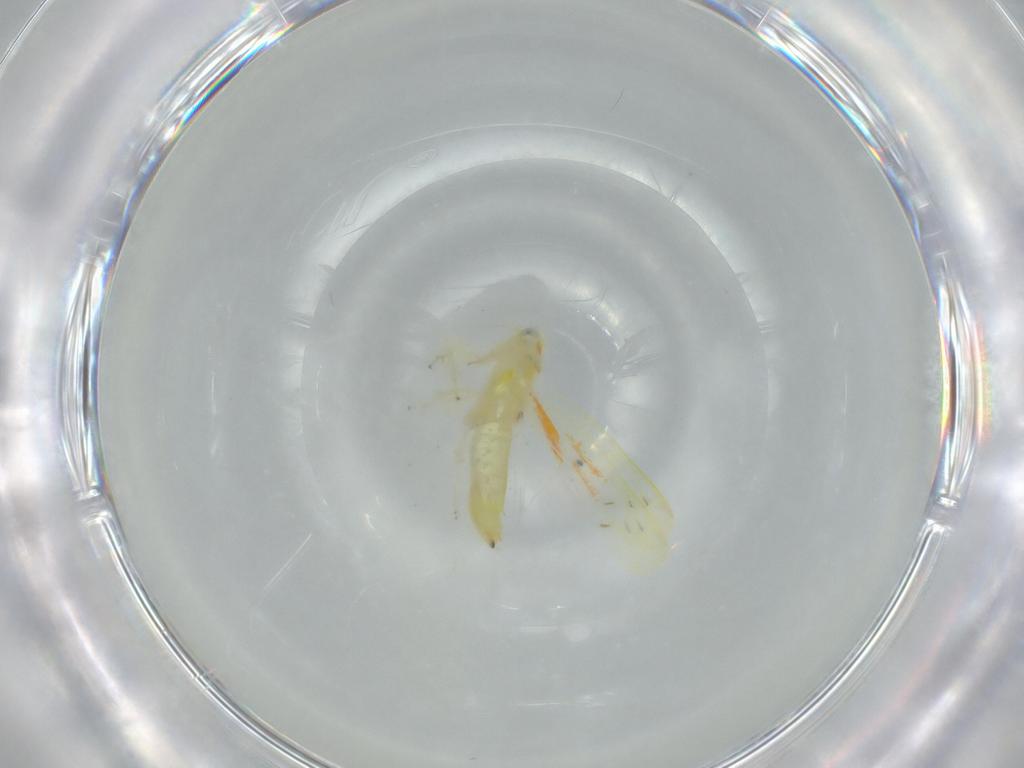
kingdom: Animalia
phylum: Arthropoda
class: Insecta
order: Hemiptera
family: Cicadellidae
